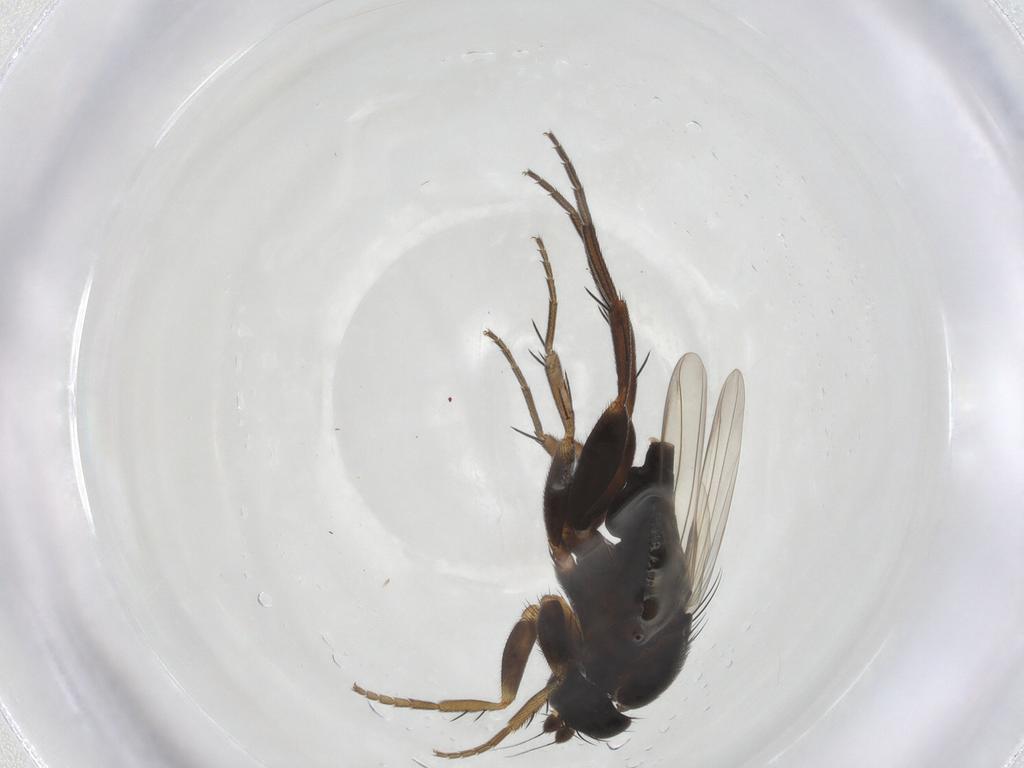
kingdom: Animalia
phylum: Arthropoda
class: Insecta
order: Diptera
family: Phoridae
